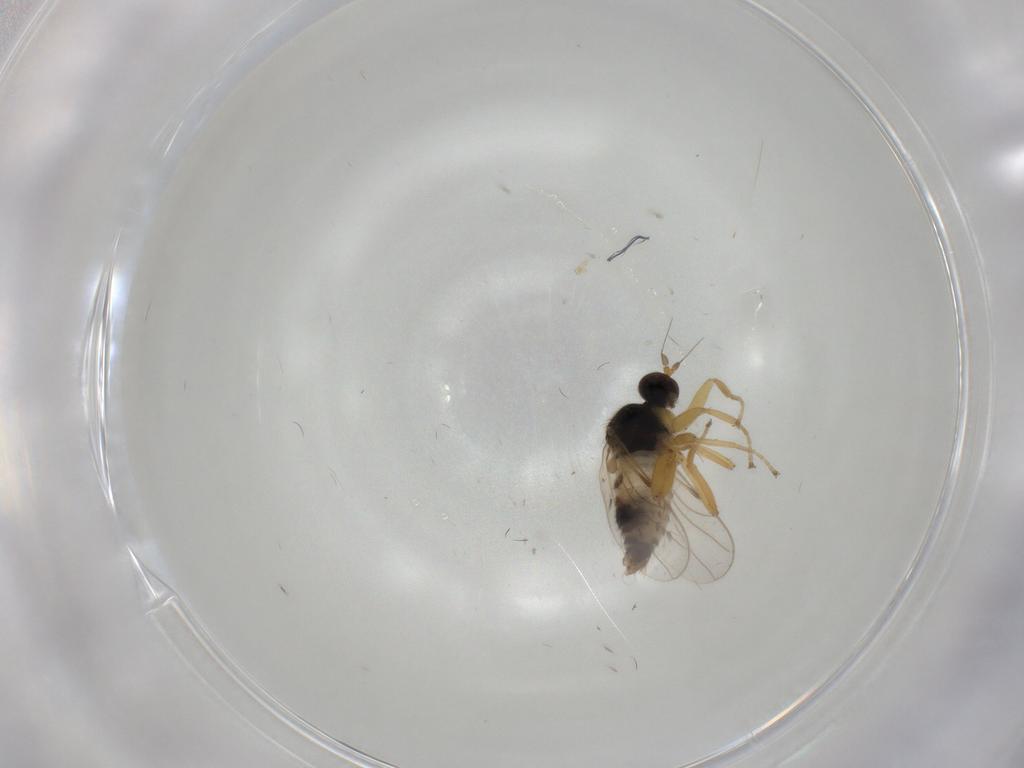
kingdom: Animalia
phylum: Arthropoda
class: Insecta
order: Diptera
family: Hybotidae
